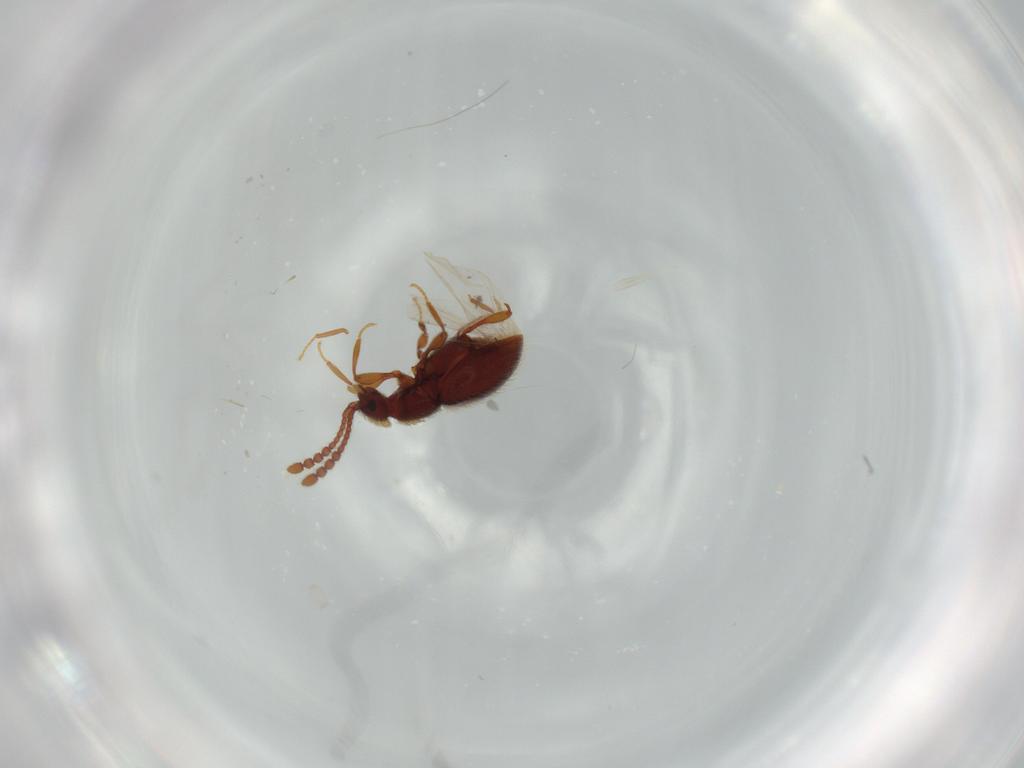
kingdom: Animalia
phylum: Arthropoda
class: Insecta
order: Coleoptera
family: Staphylinidae
